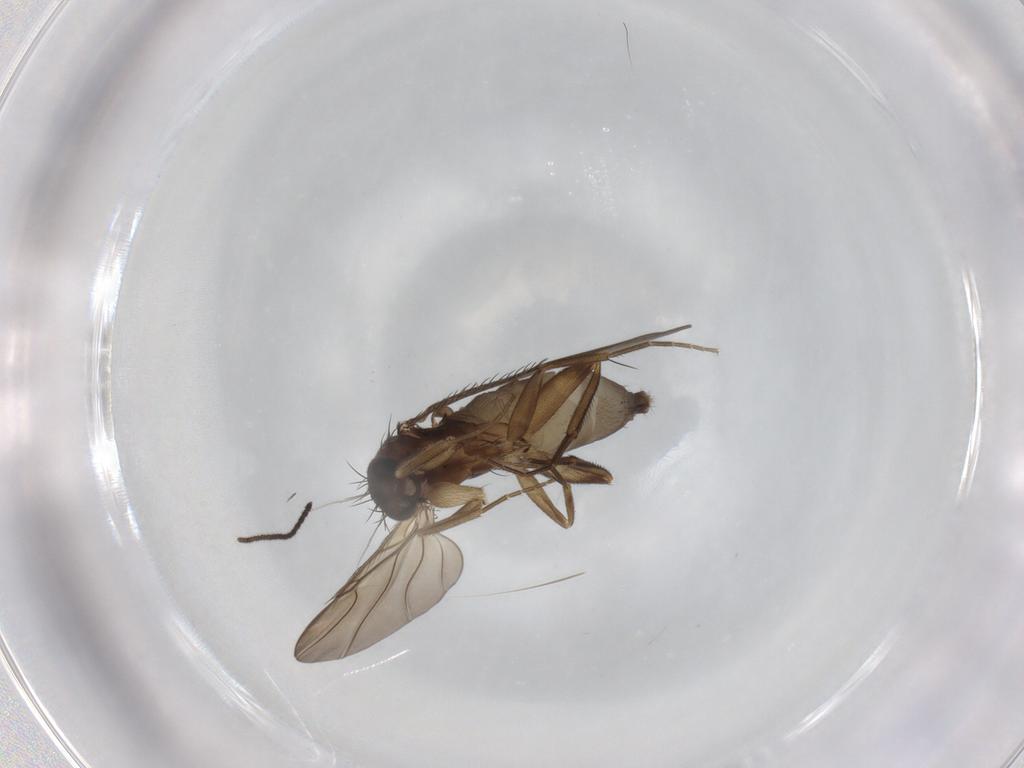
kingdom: Animalia
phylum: Arthropoda
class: Insecta
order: Diptera
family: Phoridae
